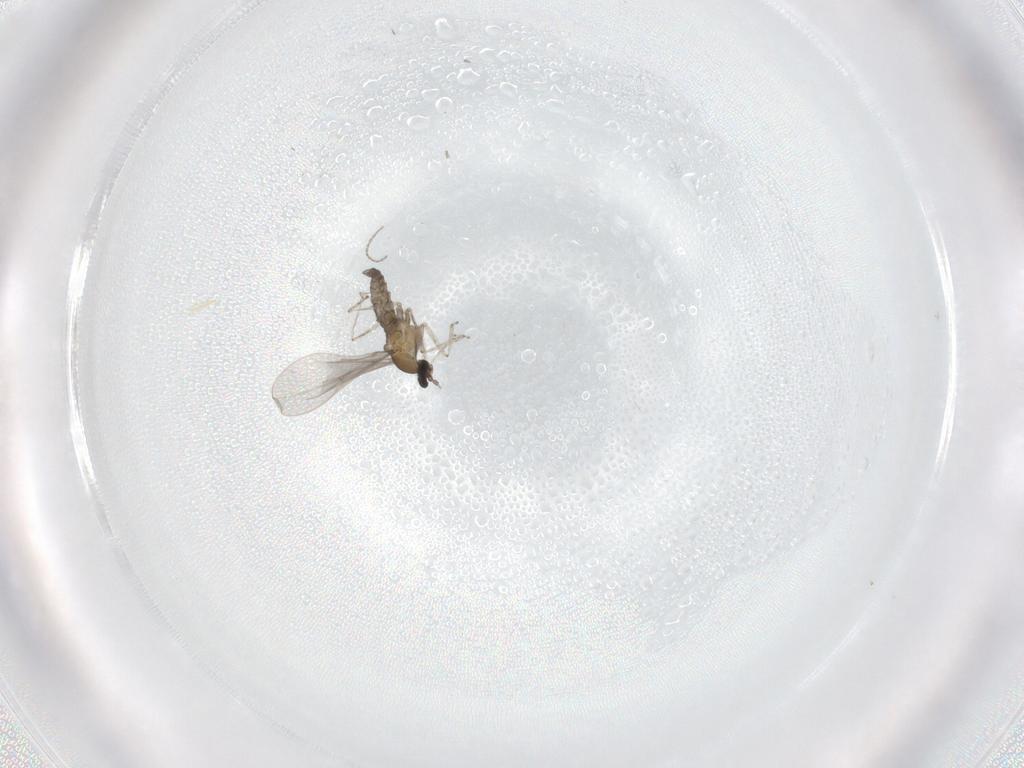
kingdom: Animalia
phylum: Arthropoda
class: Insecta
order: Diptera
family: Cecidomyiidae
